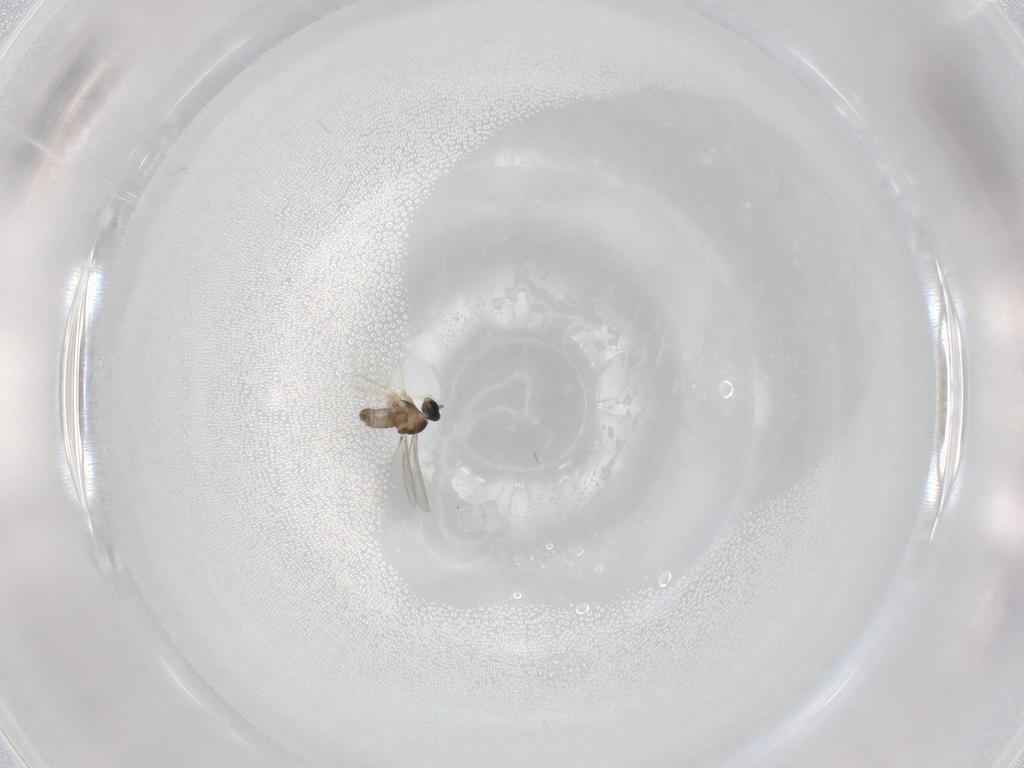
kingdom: Animalia
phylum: Arthropoda
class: Insecta
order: Diptera
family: Cecidomyiidae
